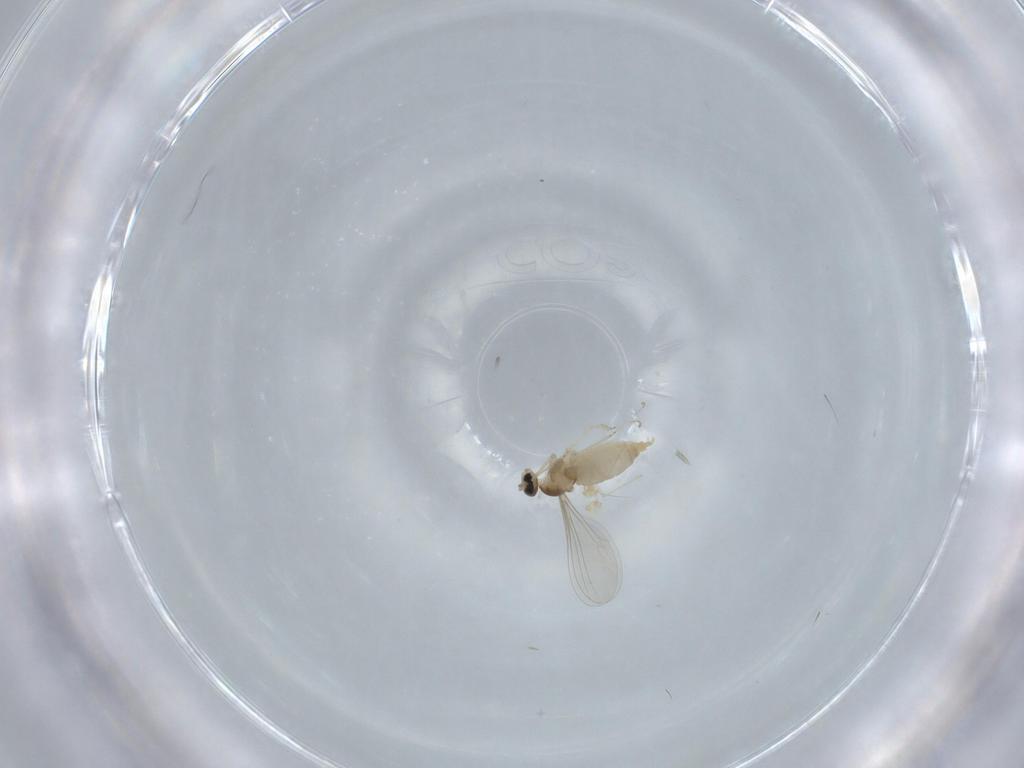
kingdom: Animalia
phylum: Arthropoda
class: Insecta
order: Diptera
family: Cecidomyiidae
